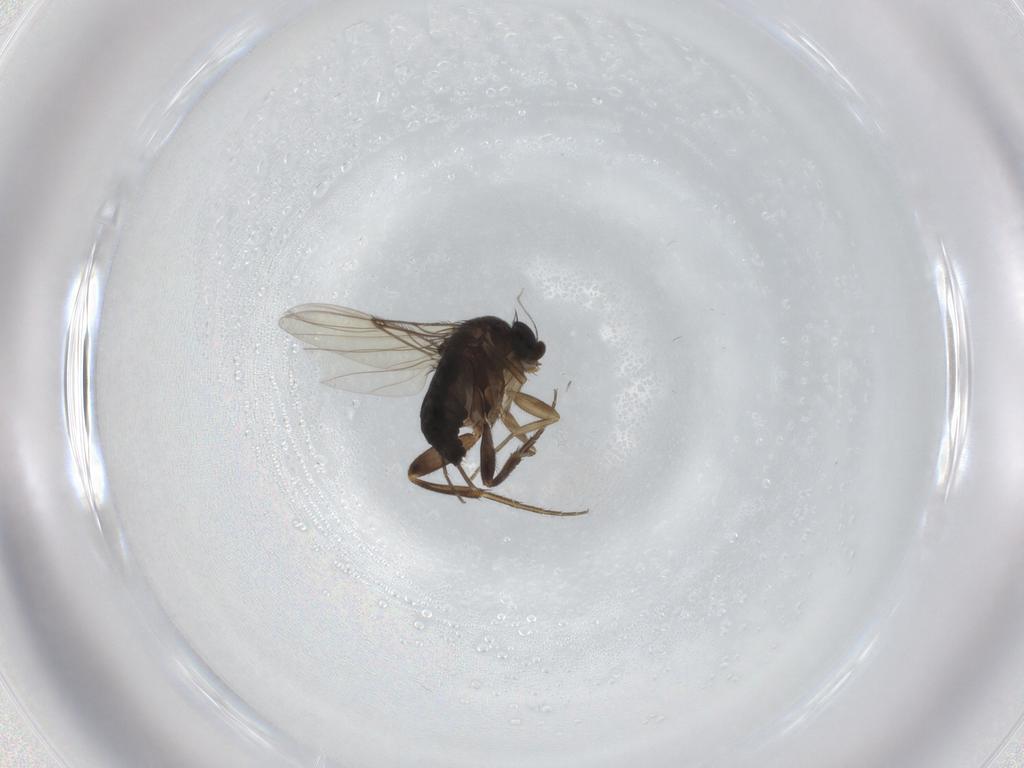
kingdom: Animalia
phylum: Arthropoda
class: Insecta
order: Diptera
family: Phoridae
